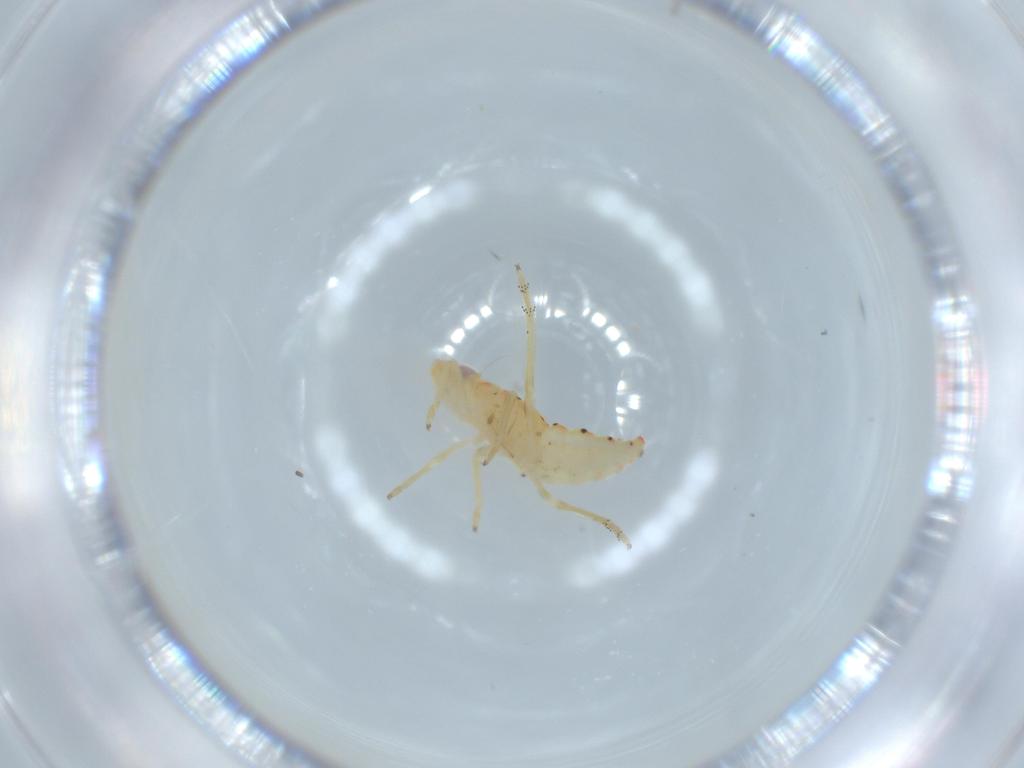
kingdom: Animalia
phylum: Arthropoda
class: Insecta
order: Hemiptera
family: Tropiduchidae
